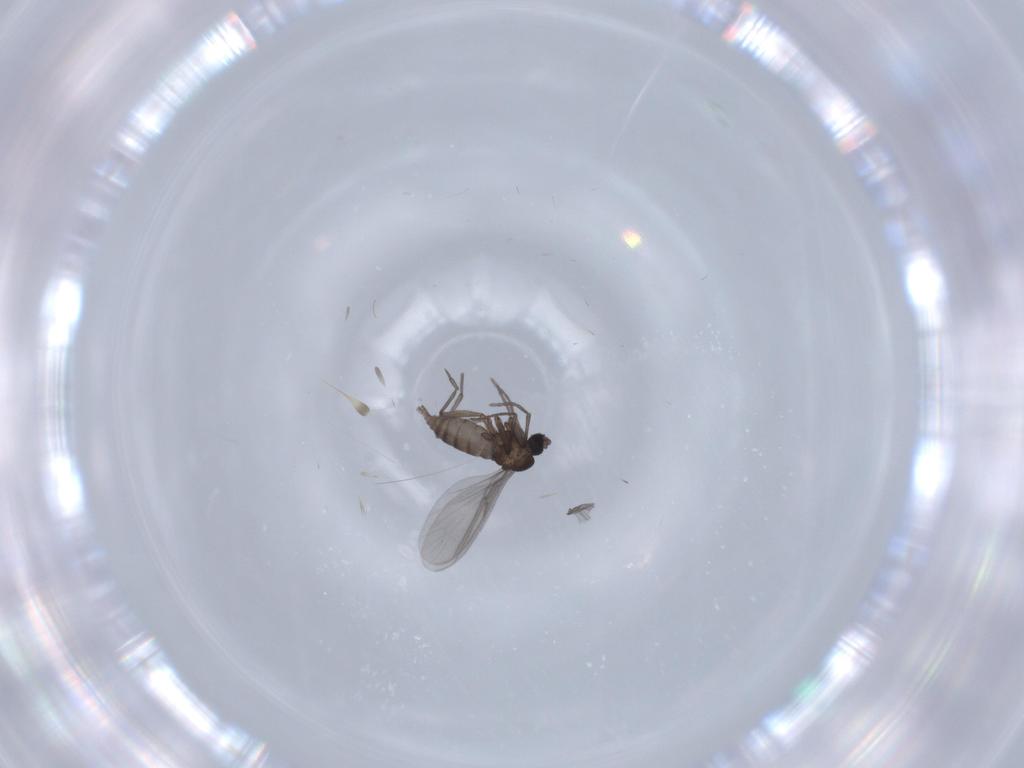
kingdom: Animalia
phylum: Arthropoda
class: Insecta
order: Diptera
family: Sciaridae
